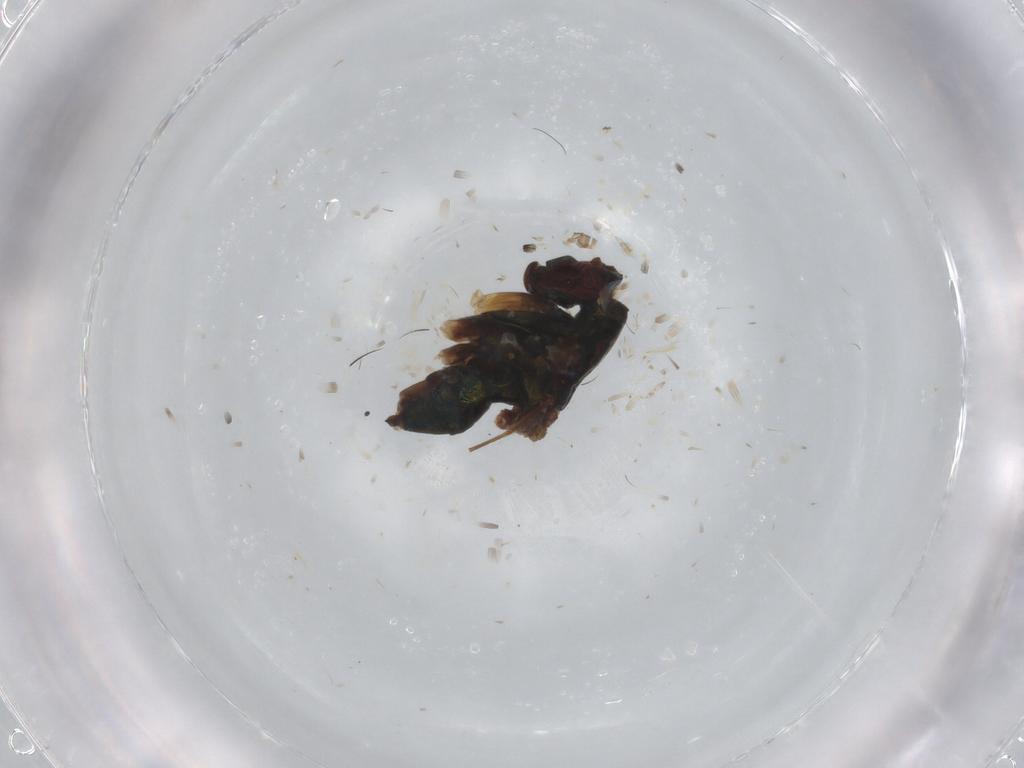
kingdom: Animalia
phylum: Arthropoda
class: Insecta
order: Diptera
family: Dolichopodidae
